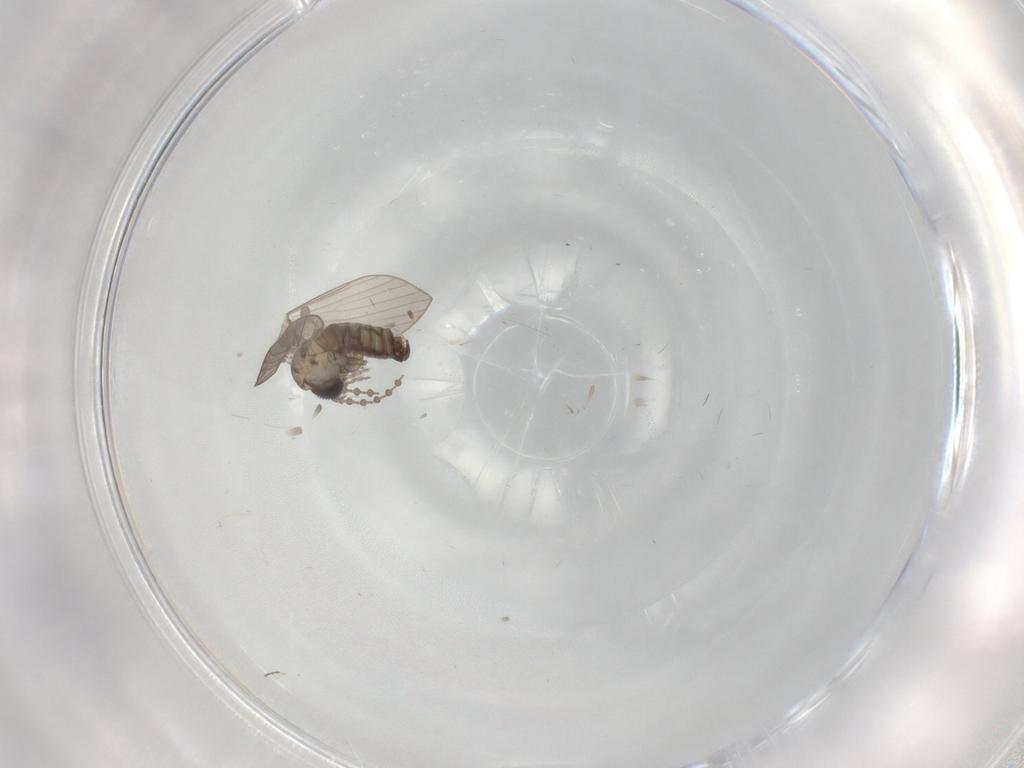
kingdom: Animalia
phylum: Arthropoda
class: Insecta
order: Diptera
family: Psychodidae
